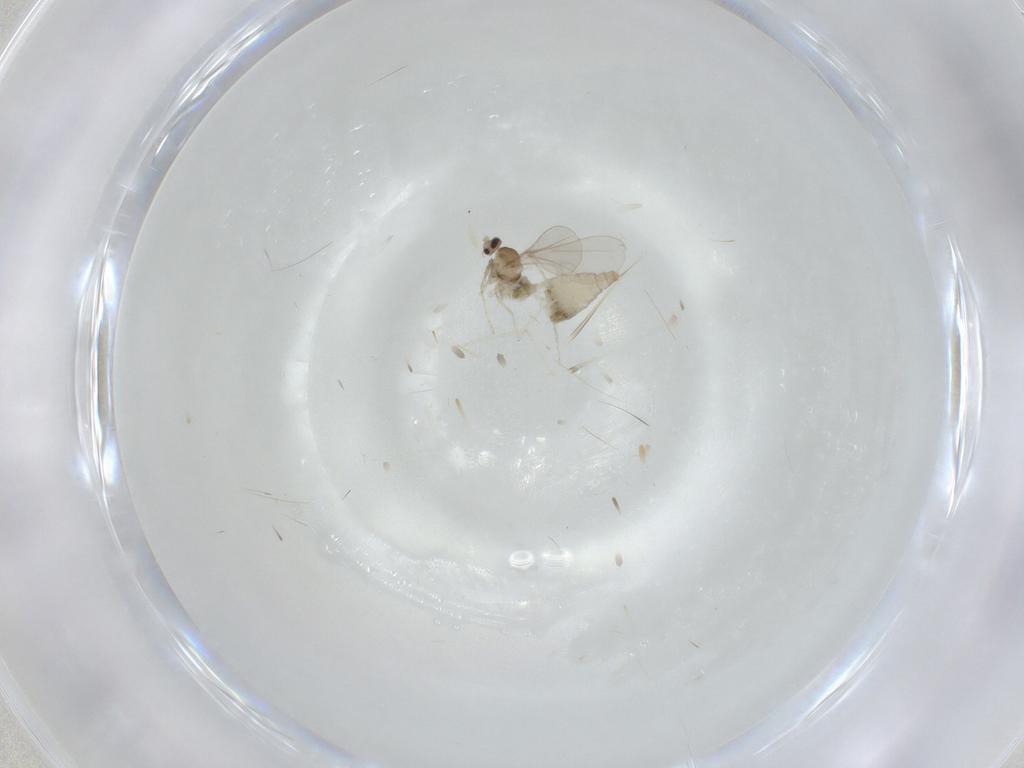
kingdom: Animalia
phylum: Arthropoda
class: Insecta
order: Diptera
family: Cecidomyiidae
